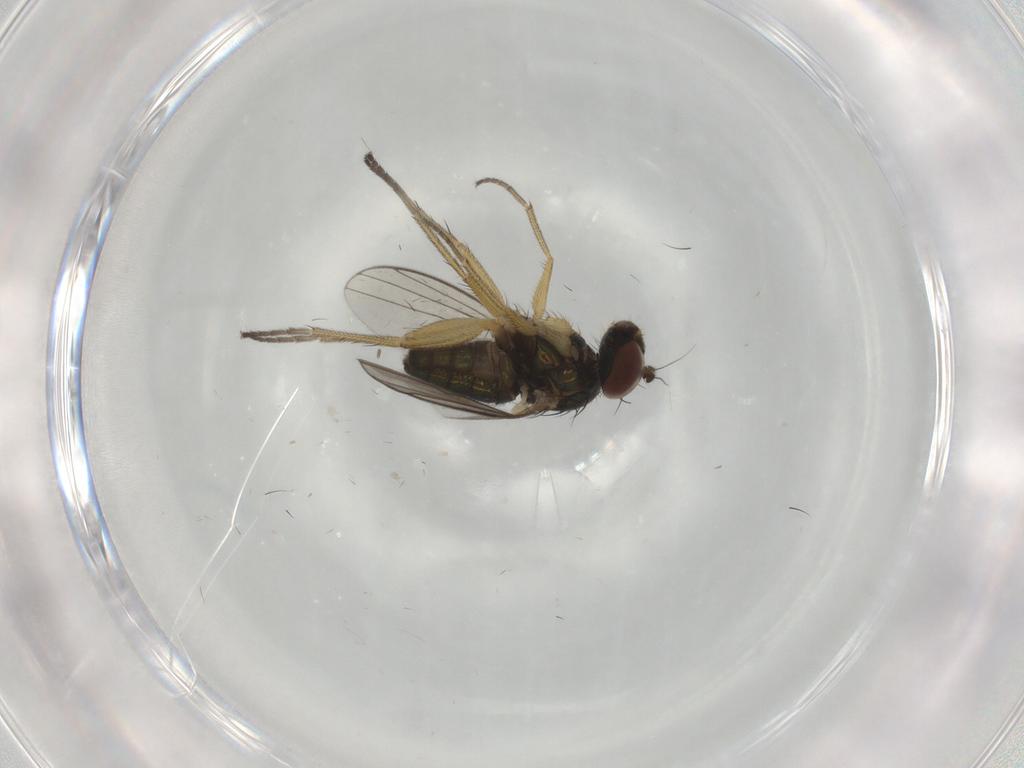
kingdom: Animalia
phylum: Arthropoda
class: Insecta
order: Diptera
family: Dolichopodidae
